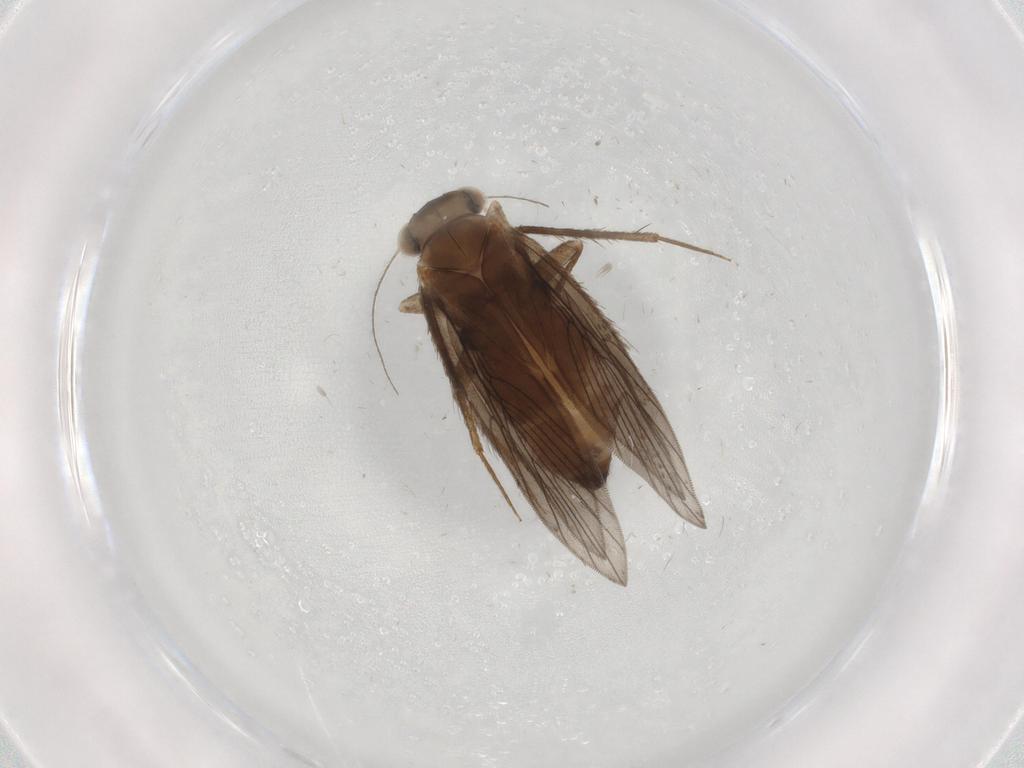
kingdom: Animalia
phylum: Arthropoda
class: Insecta
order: Psocodea
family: Lepidopsocidae
